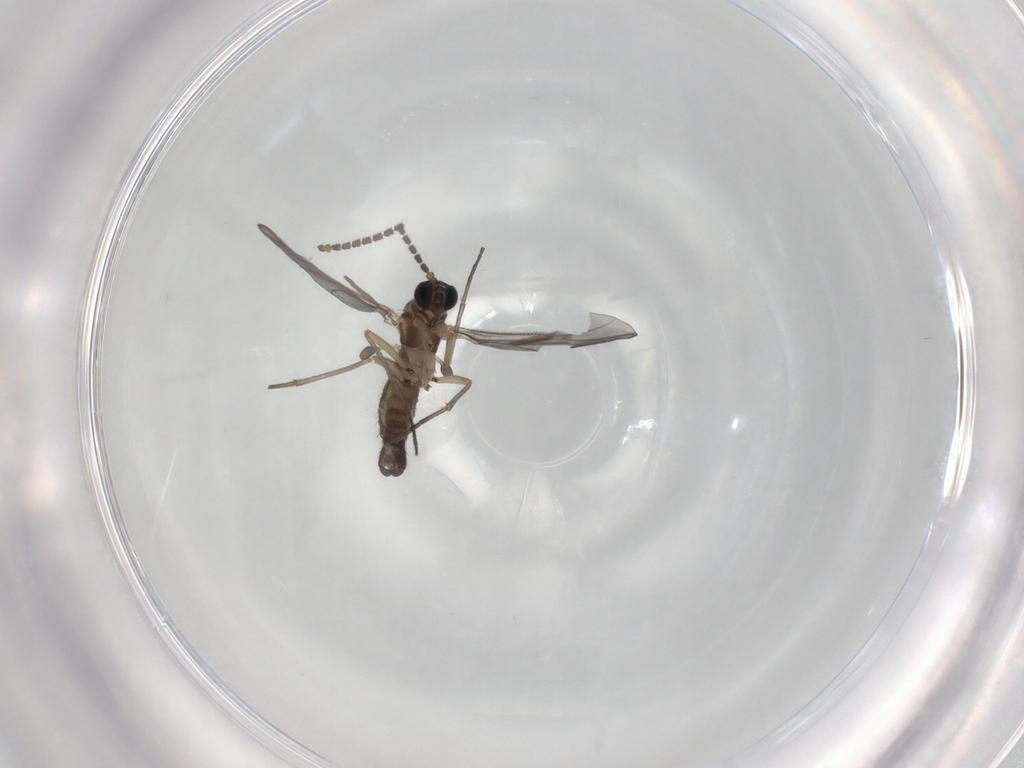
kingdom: Animalia
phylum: Arthropoda
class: Insecta
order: Diptera
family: Sciaridae
